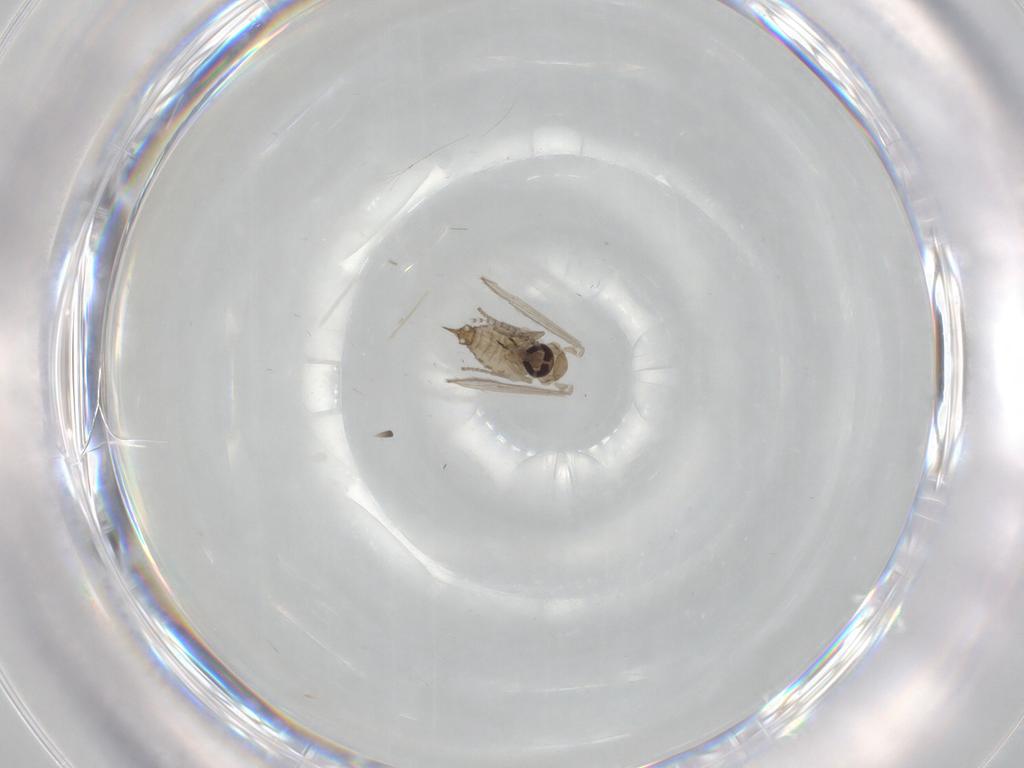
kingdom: Animalia
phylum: Arthropoda
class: Insecta
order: Diptera
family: Psychodidae
